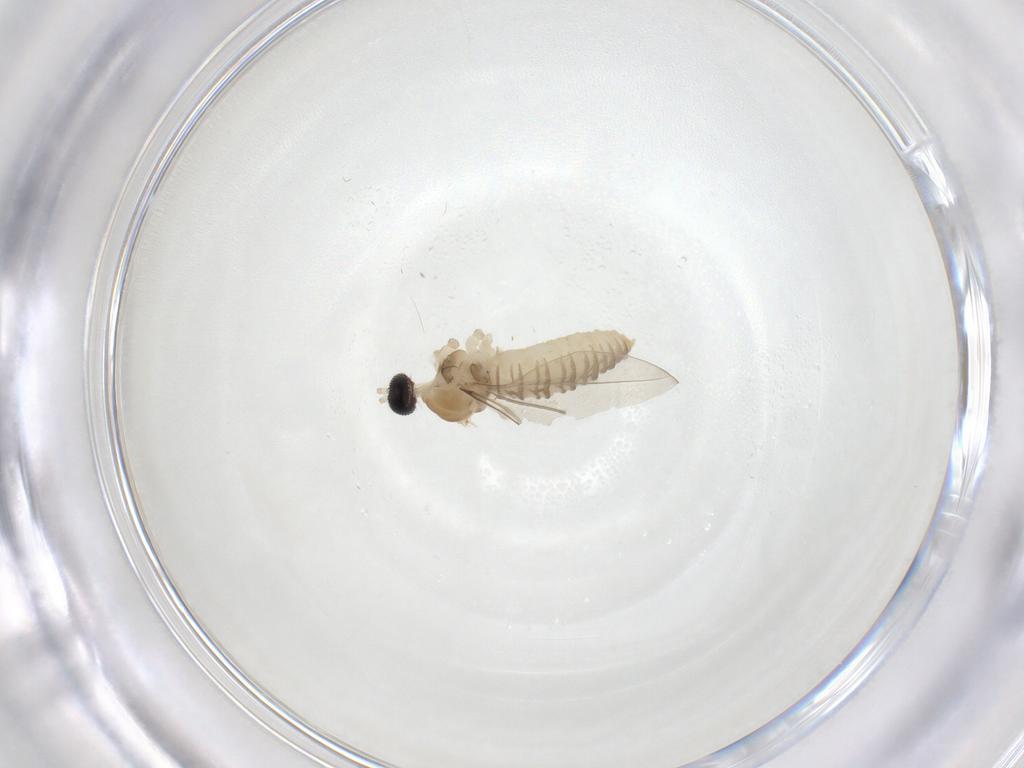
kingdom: Animalia
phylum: Arthropoda
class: Insecta
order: Diptera
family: Cecidomyiidae
